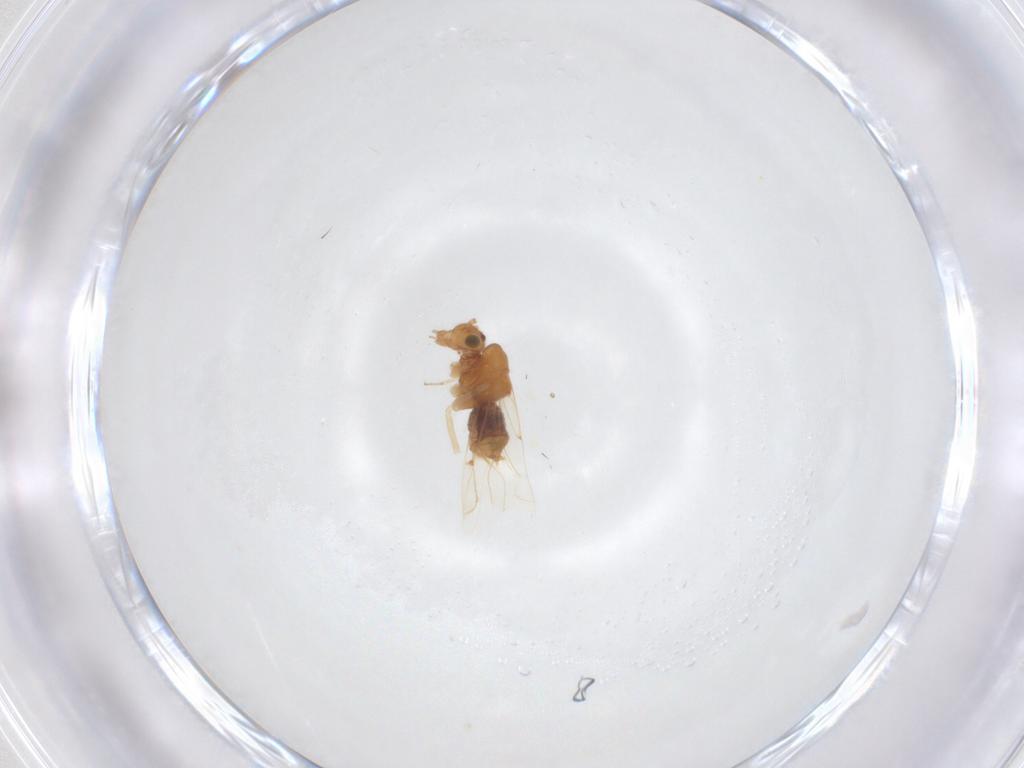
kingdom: Animalia
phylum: Arthropoda
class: Insecta
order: Psocodea
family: Lachesillidae
